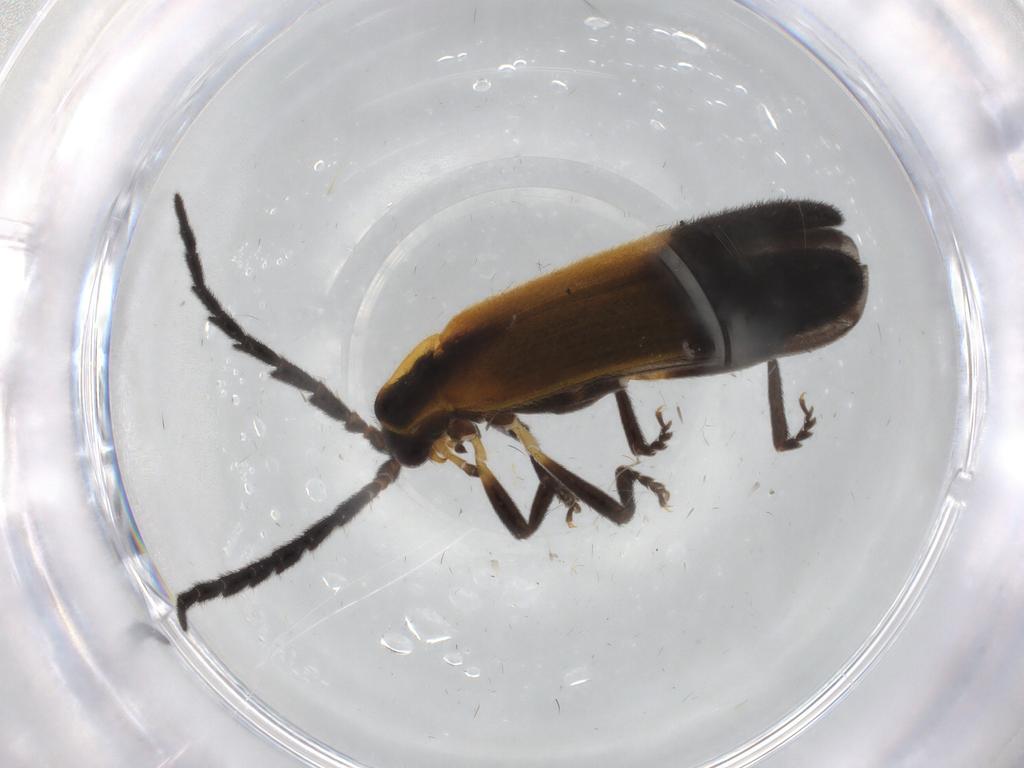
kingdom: Animalia
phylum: Arthropoda
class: Insecta
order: Coleoptera
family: Lycidae
